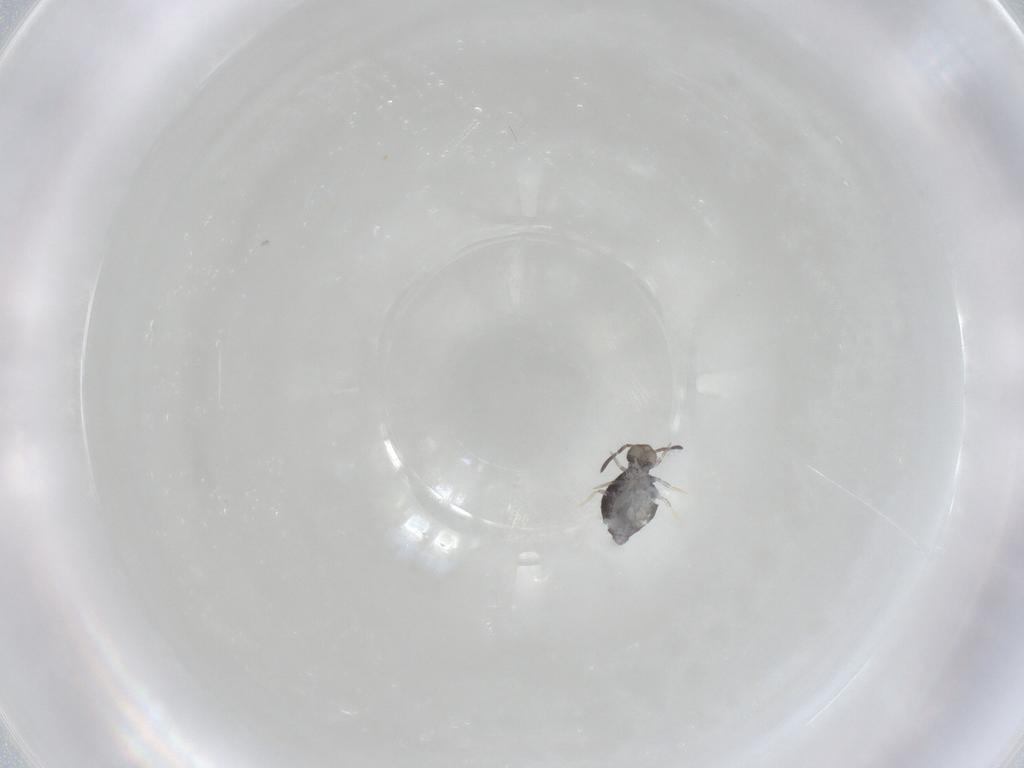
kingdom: Animalia
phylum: Arthropoda
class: Collembola
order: Symphypleona
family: Katiannidae
